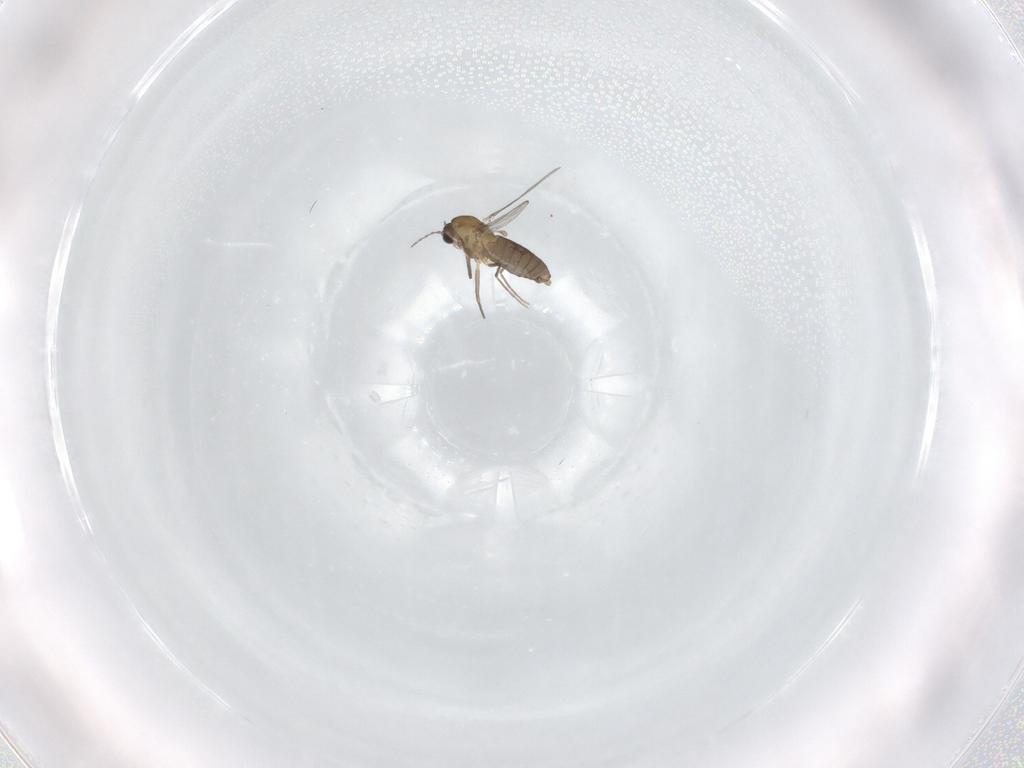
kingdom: Animalia
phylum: Arthropoda
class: Insecta
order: Diptera
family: Chironomidae
